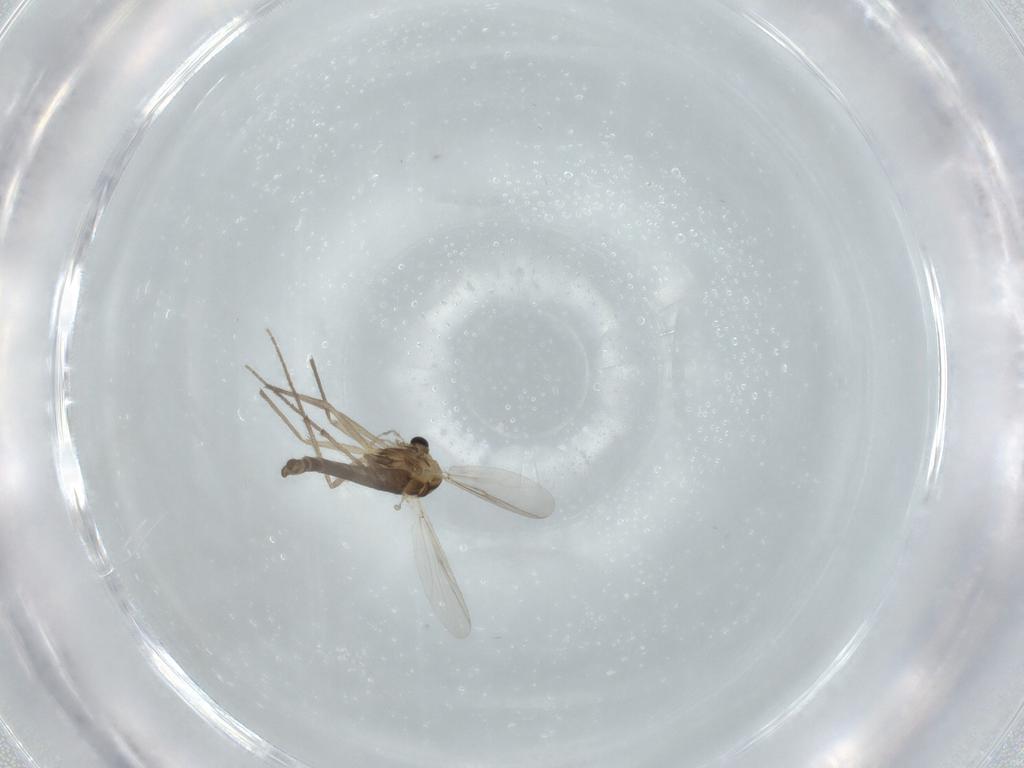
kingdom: Animalia
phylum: Arthropoda
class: Insecta
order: Diptera
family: Chironomidae
